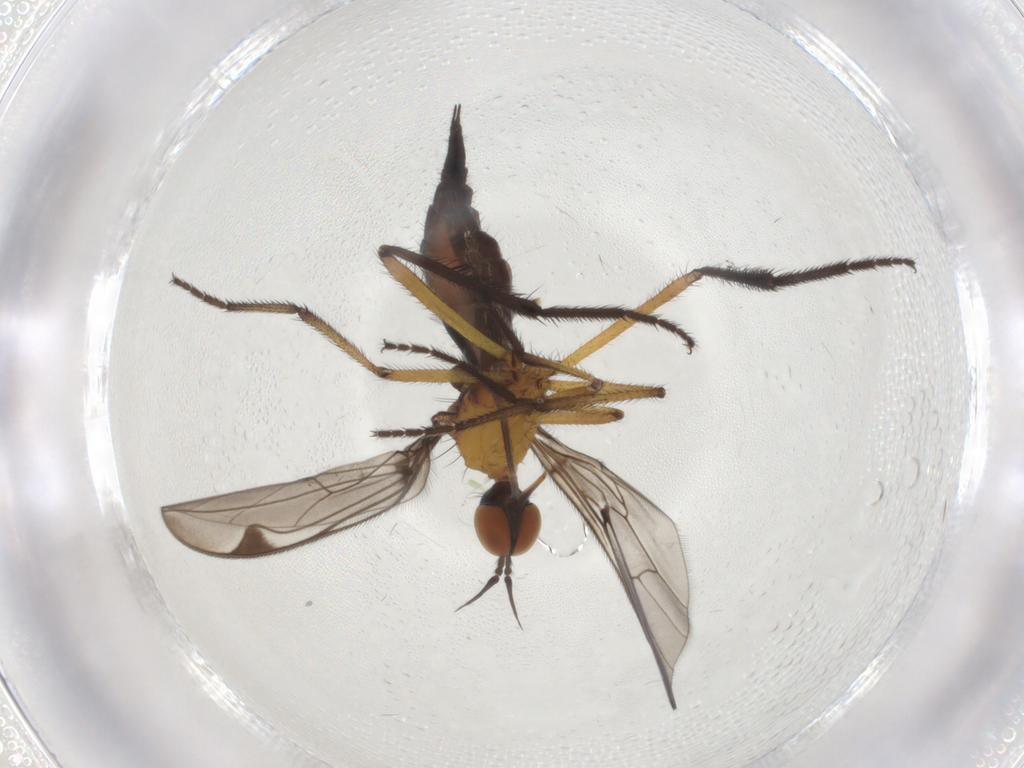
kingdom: Animalia
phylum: Arthropoda
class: Insecta
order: Diptera
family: Empididae
